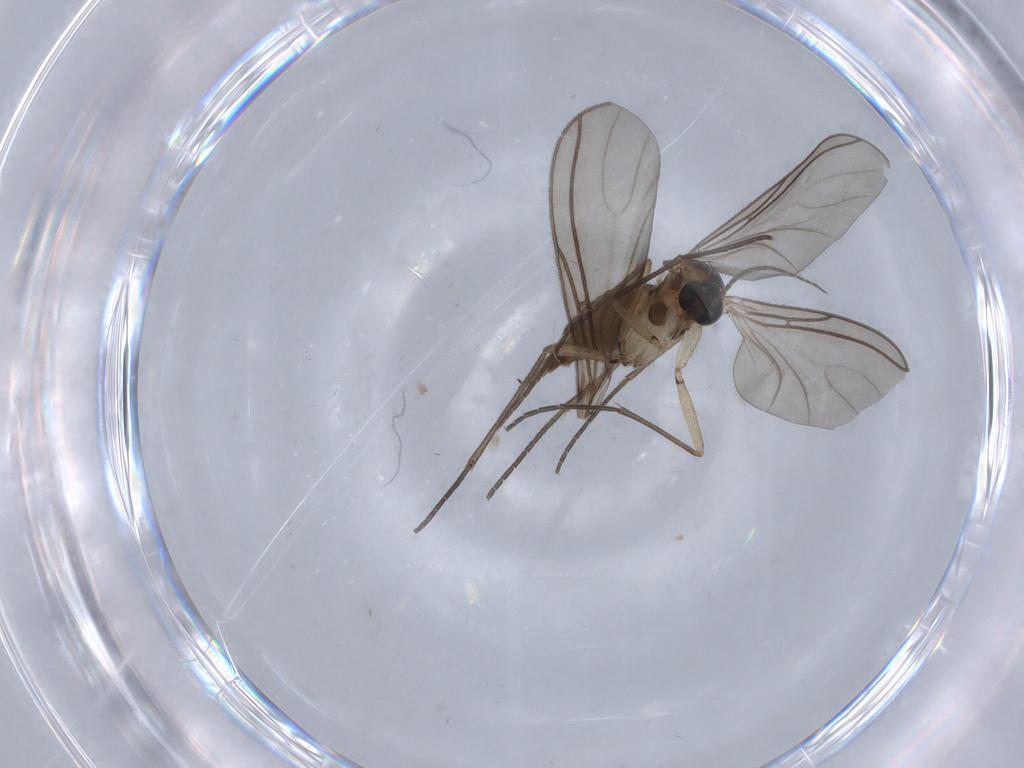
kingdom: Animalia
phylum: Arthropoda
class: Insecta
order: Diptera
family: Sciaridae
